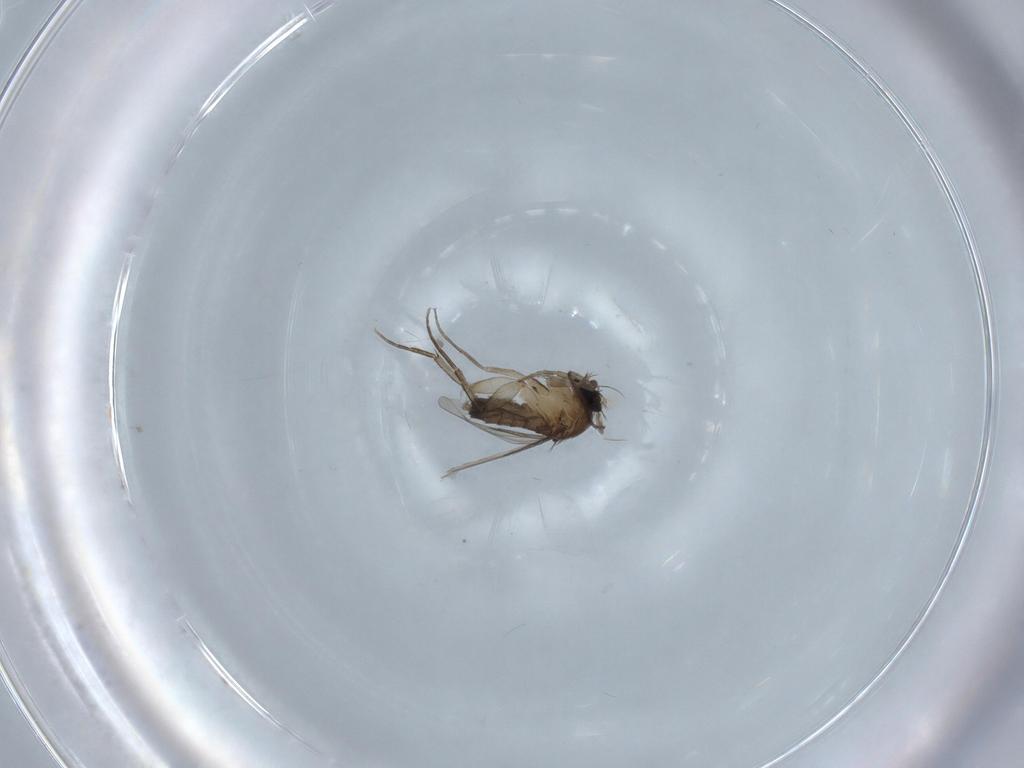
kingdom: Animalia
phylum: Arthropoda
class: Insecta
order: Diptera
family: Phoridae
